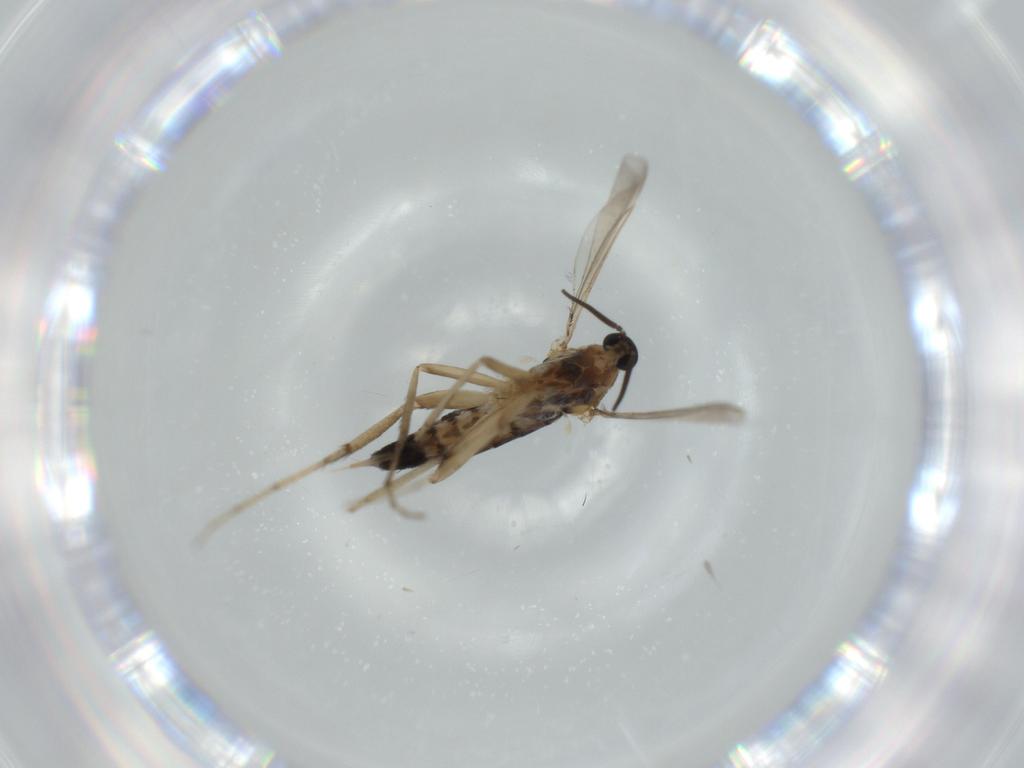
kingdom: Animalia
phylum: Arthropoda
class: Insecta
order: Diptera
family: Cecidomyiidae
